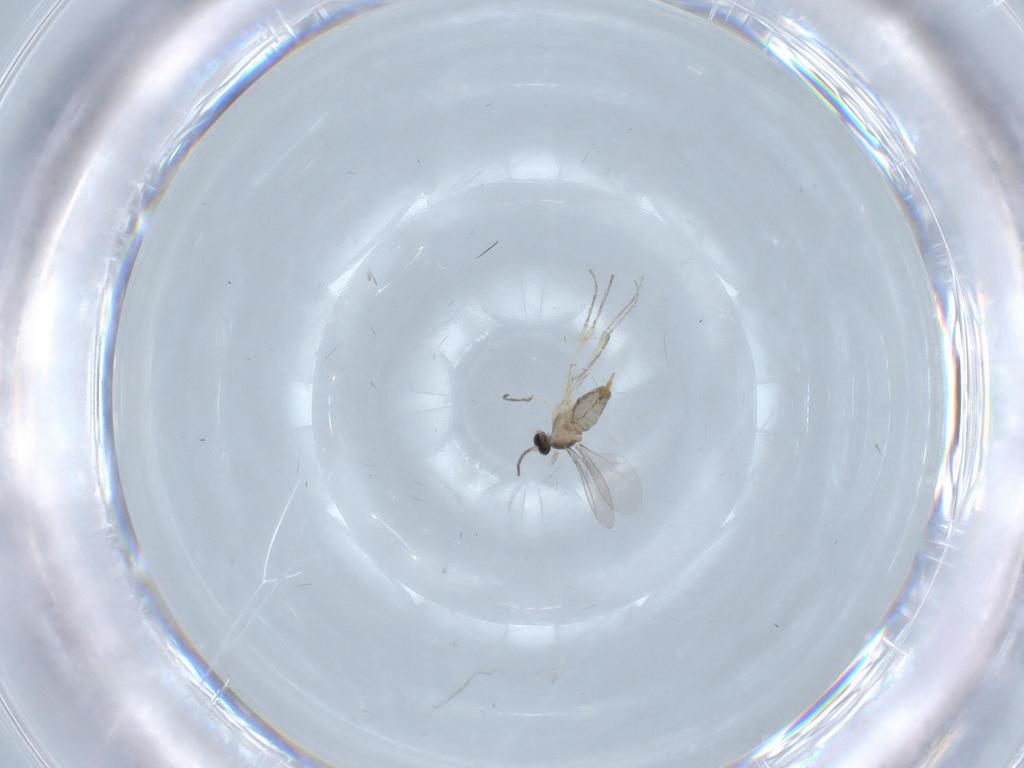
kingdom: Animalia
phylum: Arthropoda
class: Insecta
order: Diptera
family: Cecidomyiidae
